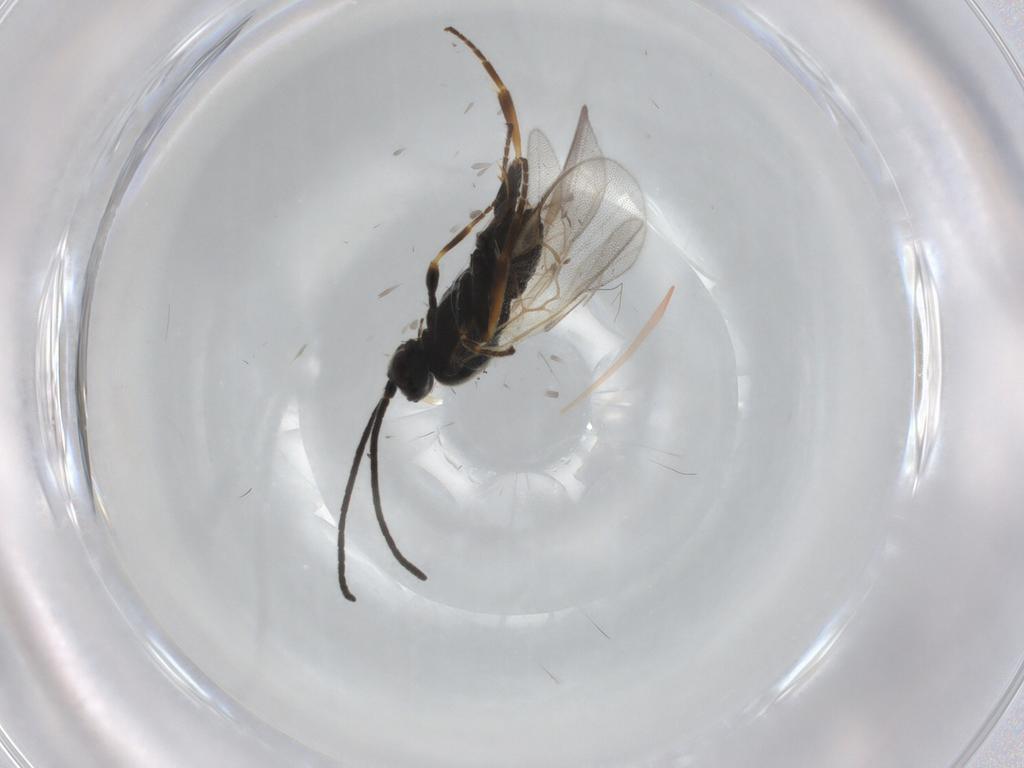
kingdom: Animalia
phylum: Arthropoda
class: Insecta
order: Hymenoptera
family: Braconidae
